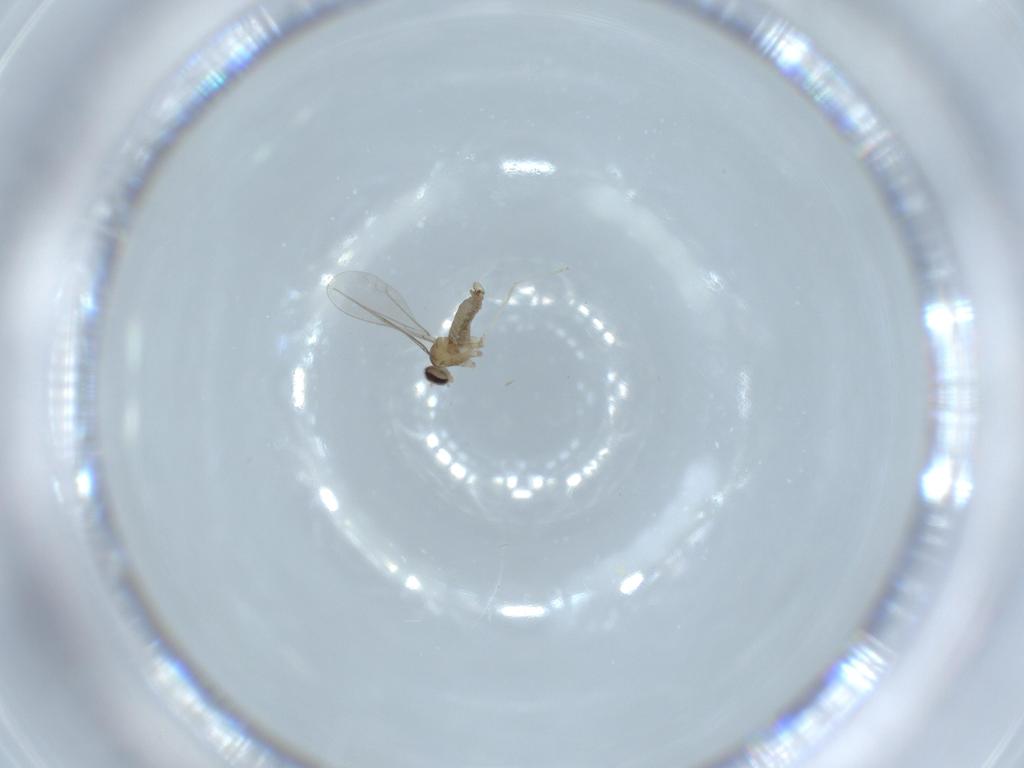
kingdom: Animalia
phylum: Arthropoda
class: Insecta
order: Diptera
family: Cecidomyiidae
